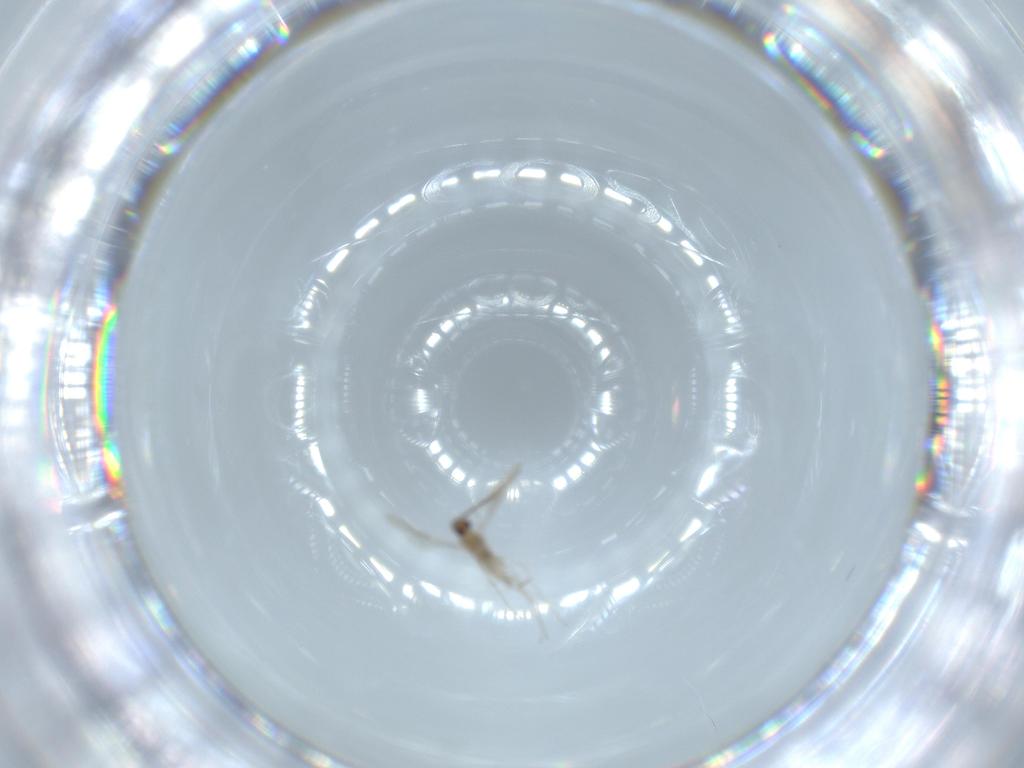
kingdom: Animalia
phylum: Arthropoda
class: Insecta
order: Diptera
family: Cecidomyiidae
